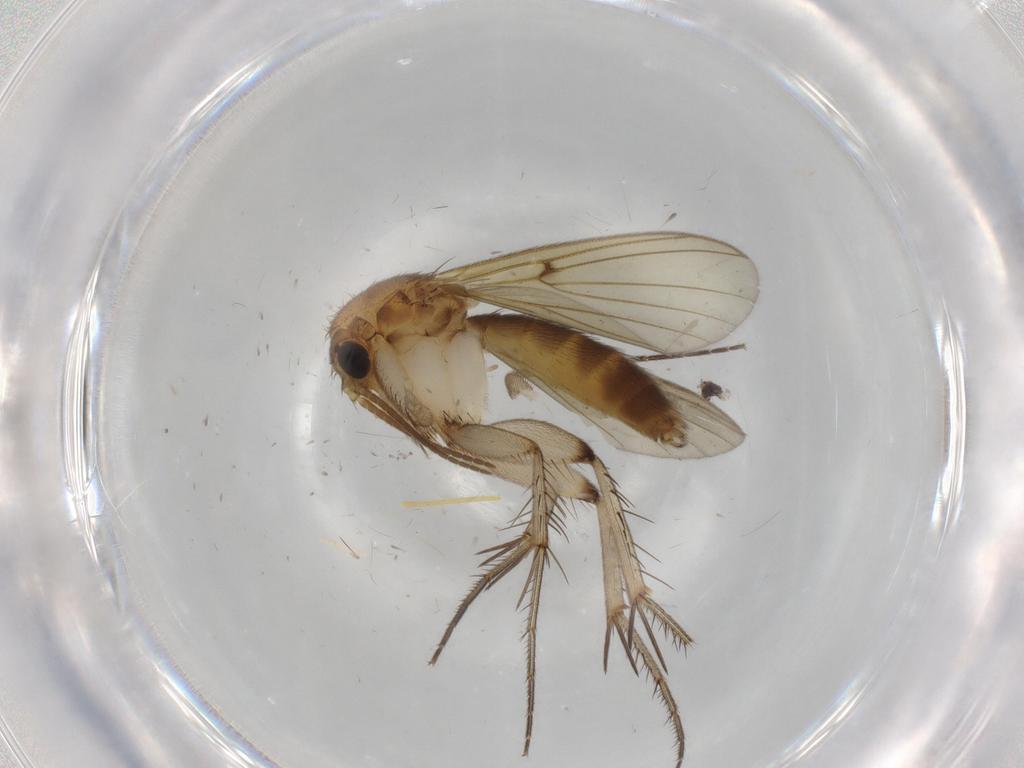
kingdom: Animalia
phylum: Arthropoda
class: Insecta
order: Diptera
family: Mycetophilidae
